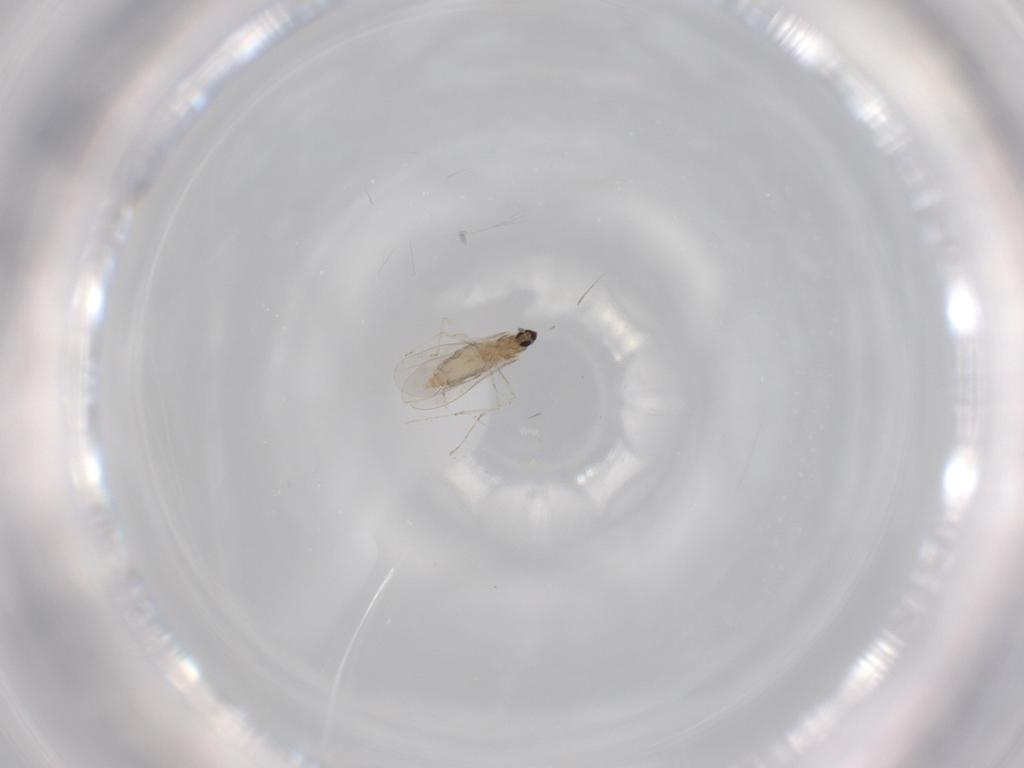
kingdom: Animalia
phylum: Arthropoda
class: Insecta
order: Diptera
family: Cecidomyiidae
